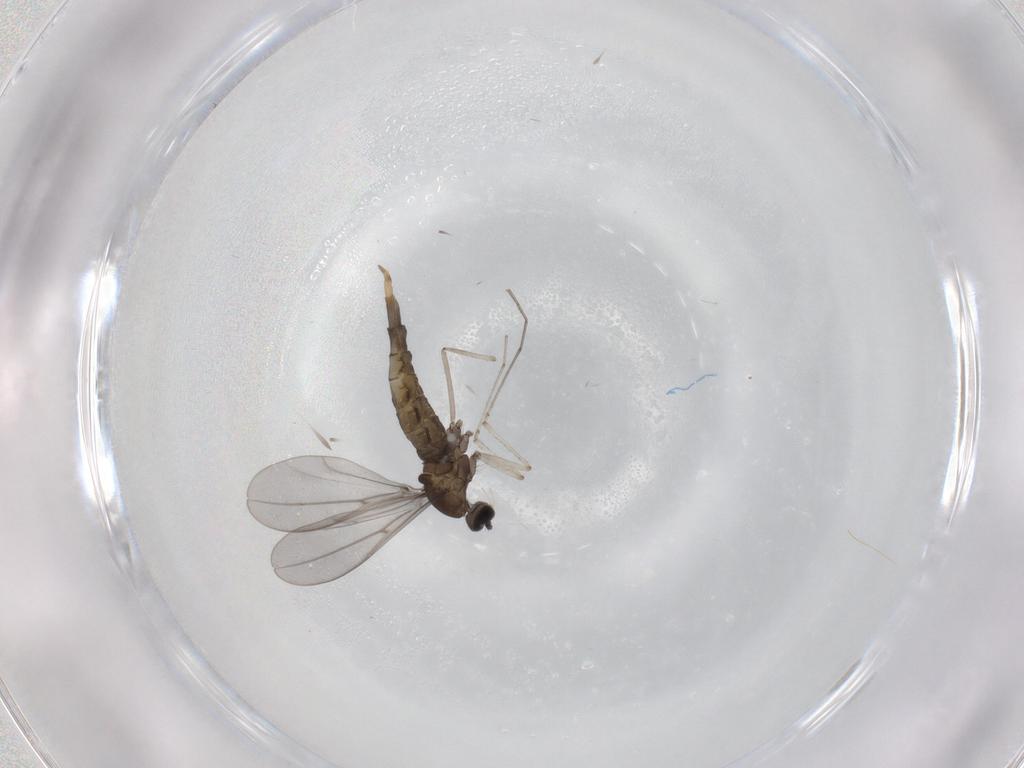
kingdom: Animalia
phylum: Arthropoda
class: Insecta
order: Diptera
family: Cecidomyiidae
